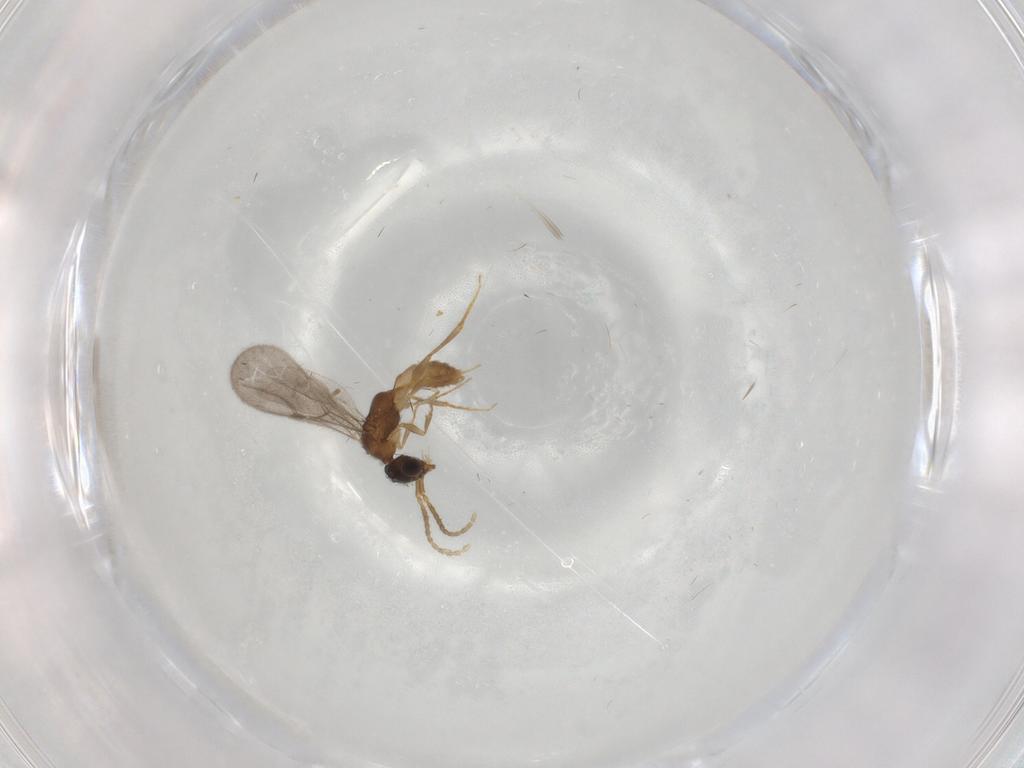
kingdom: Animalia
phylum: Arthropoda
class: Insecta
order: Hymenoptera
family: Bethylidae
